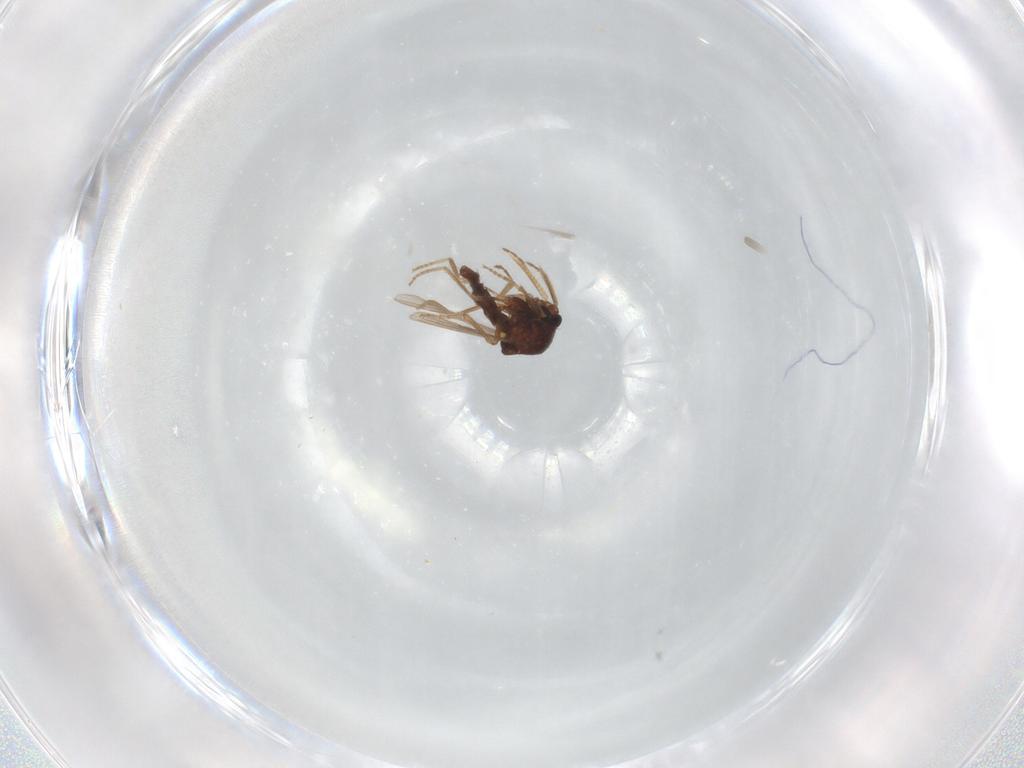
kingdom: Animalia
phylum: Arthropoda
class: Insecta
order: Diptera
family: Ceratopogonidae
